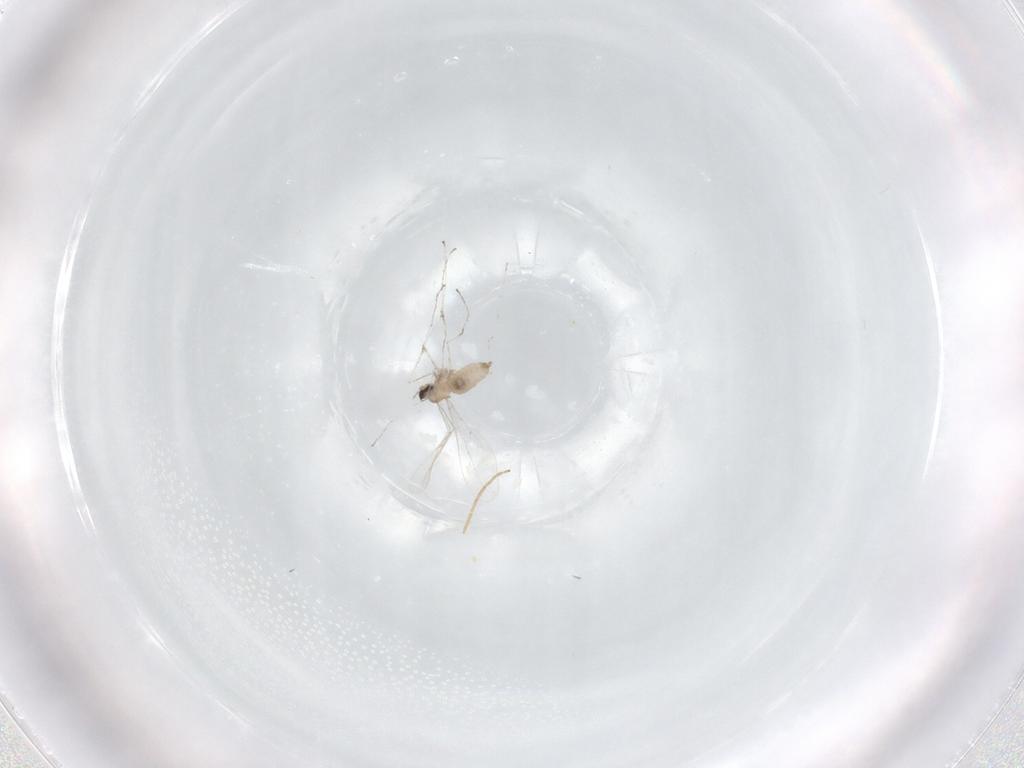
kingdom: Animalia
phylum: Arthropoda
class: Insecta
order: Diptera
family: Cecidomyiidae
